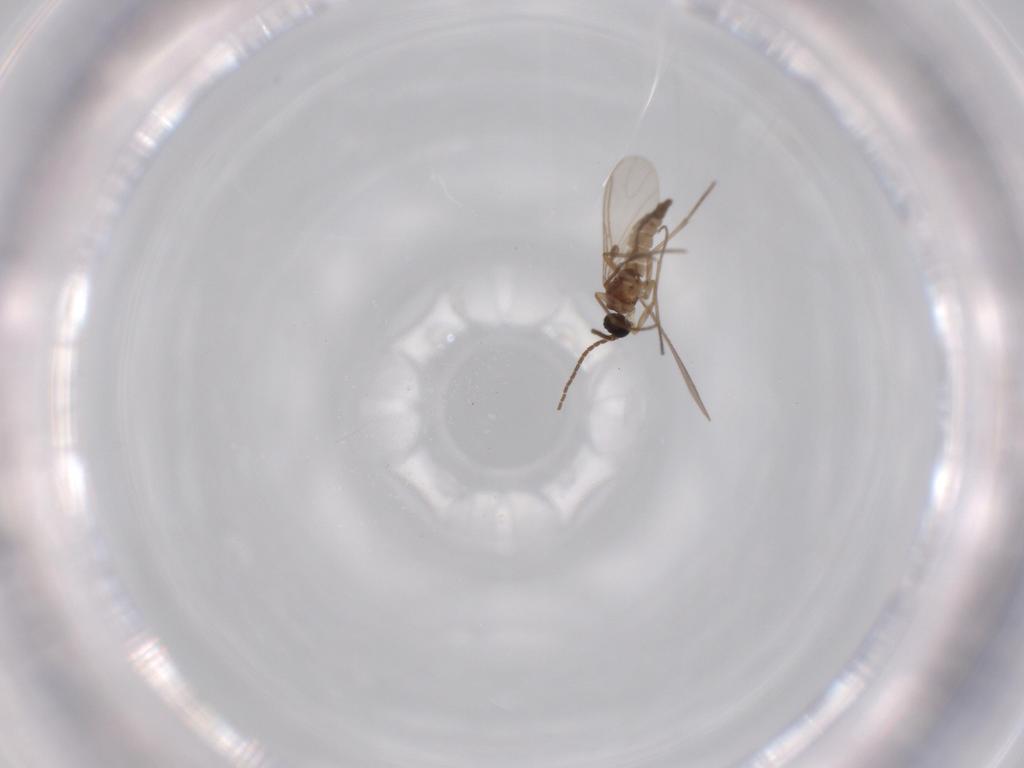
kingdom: Animalia
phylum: Arthropoda
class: Insecta
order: Diptera
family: Sciaridae
